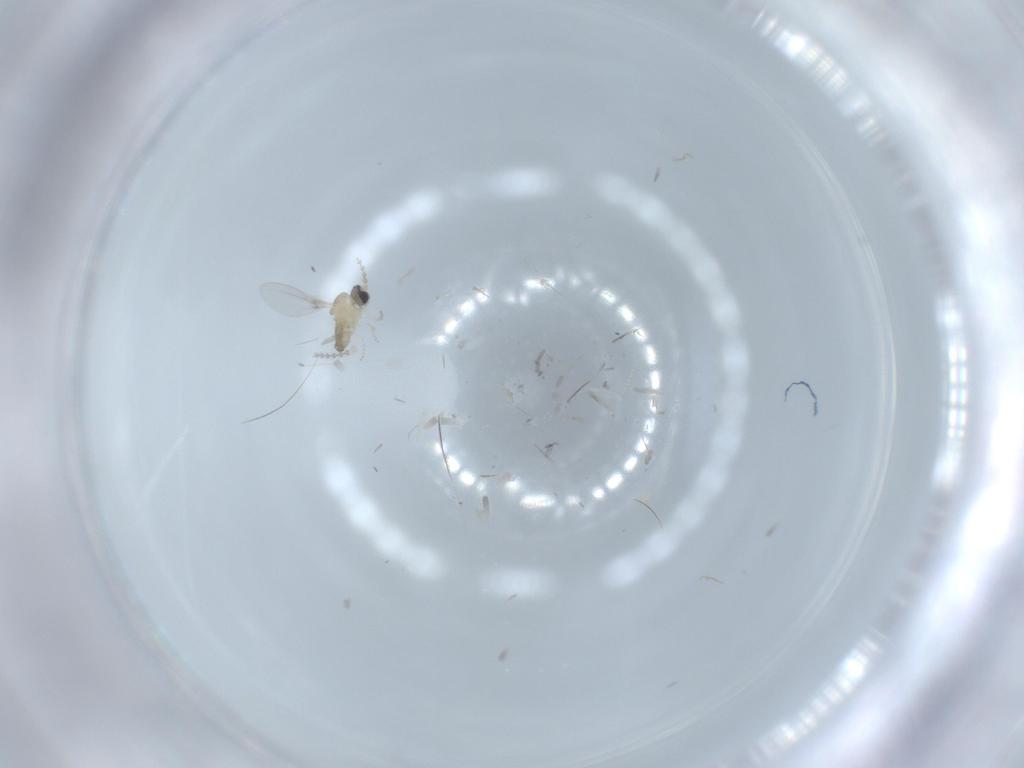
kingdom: Animalia
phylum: Arthropoda
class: Insecta
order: Diptera
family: Cecidomyiidae
